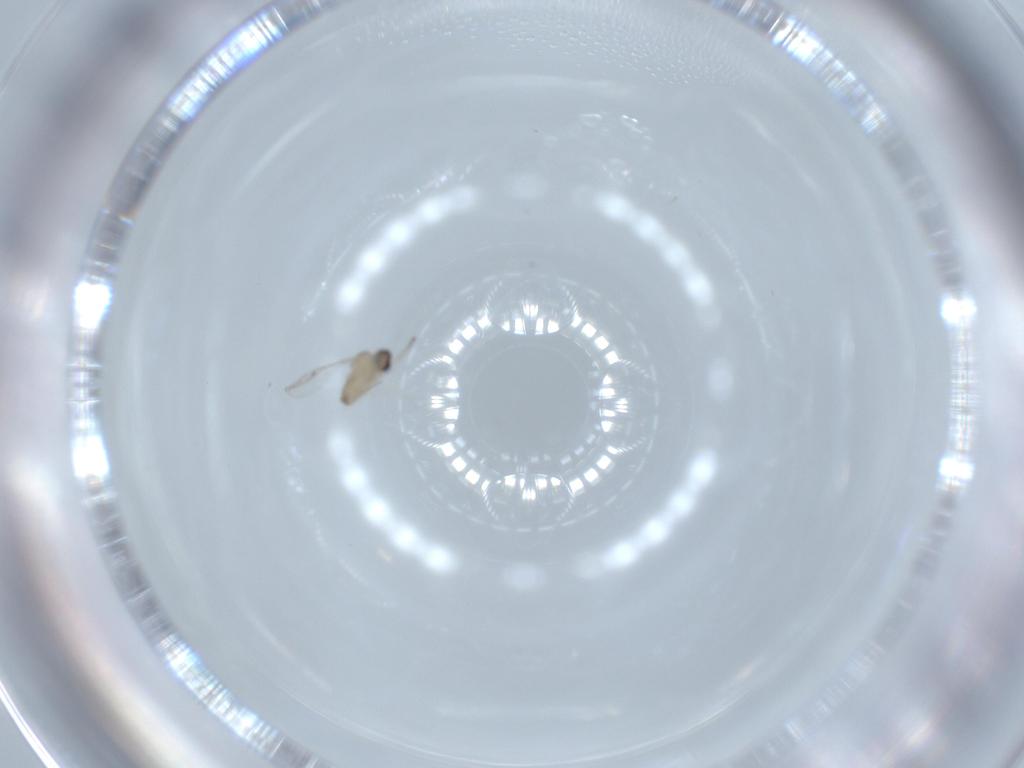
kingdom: Animalia
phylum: Arthropoda
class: Insecta
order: Diptera
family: Cecidomyiidae
